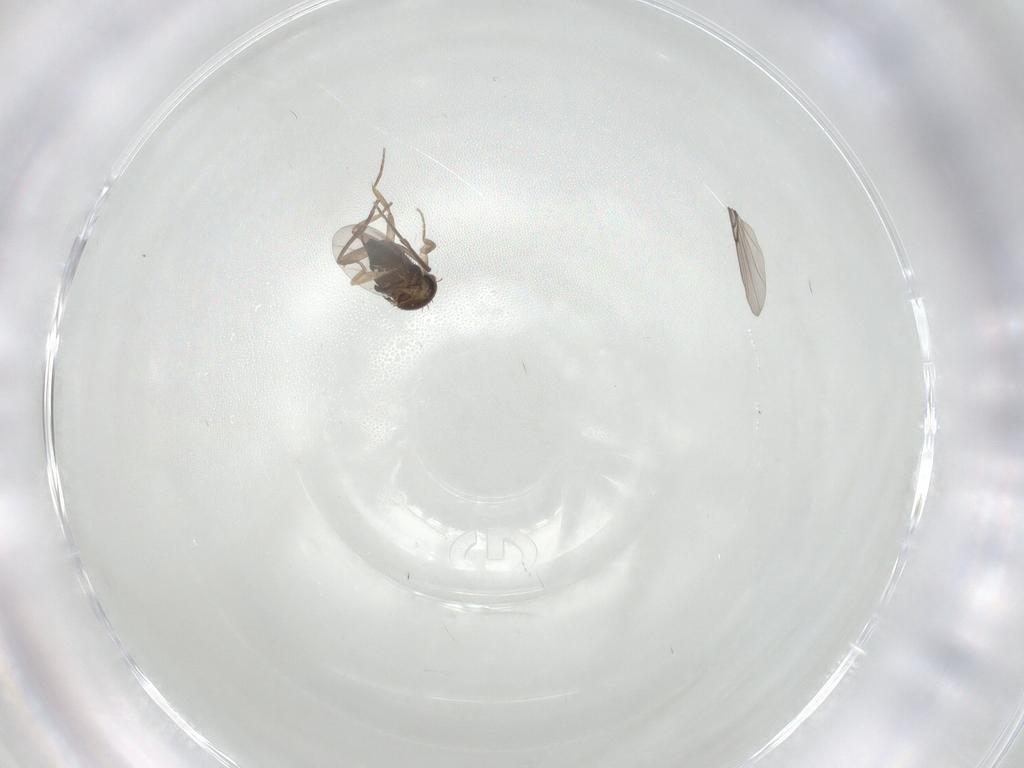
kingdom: Animalia
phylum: Arthropoda
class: Insecta
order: Diptera
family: Phoridae
